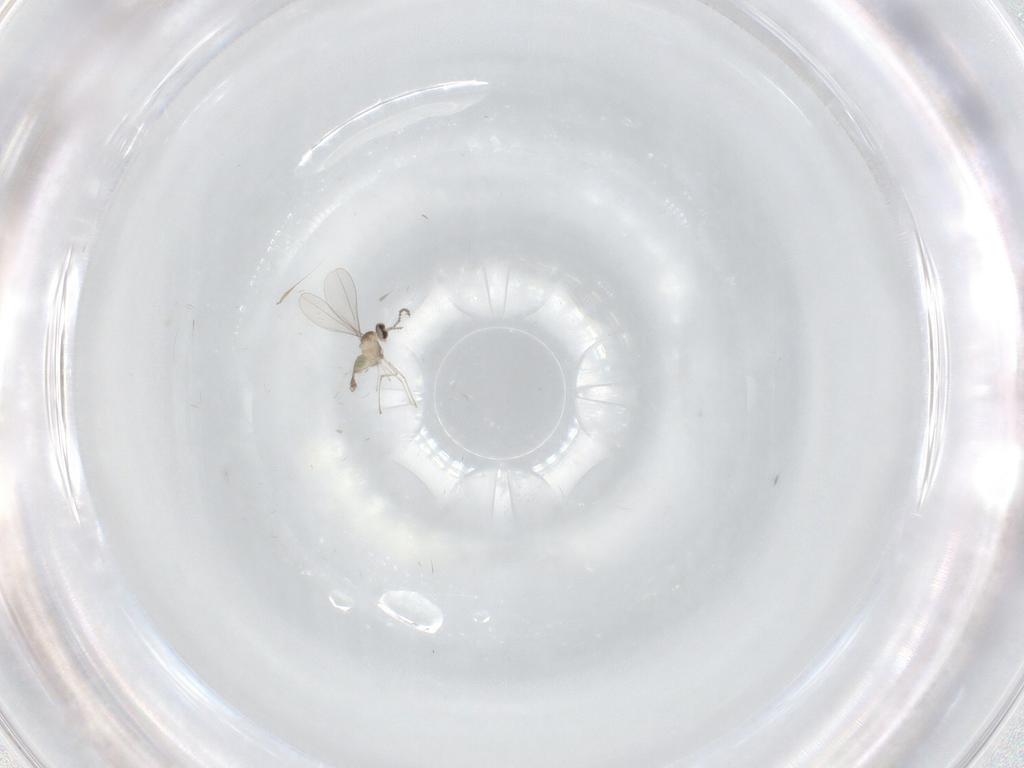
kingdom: Animalia
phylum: Arthropoda
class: Insecta
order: Diptera
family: Cecidomyiidae
